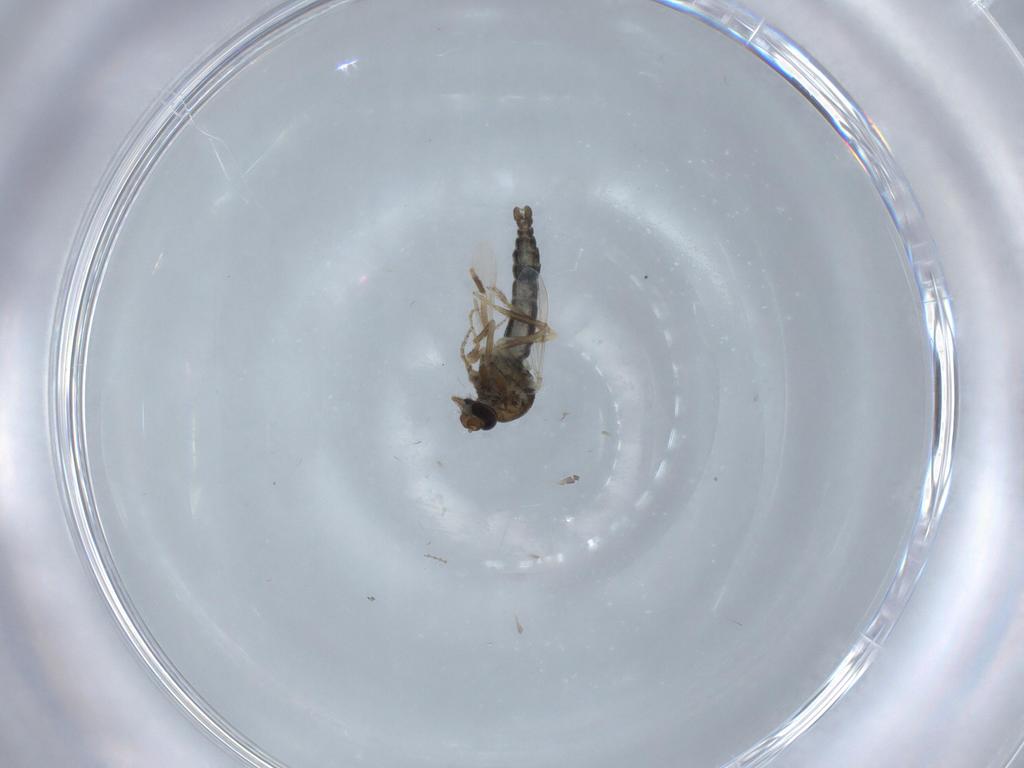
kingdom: Animalia
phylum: Arthropoda
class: Insecta
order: Diptera
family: Ceratopogonidae
